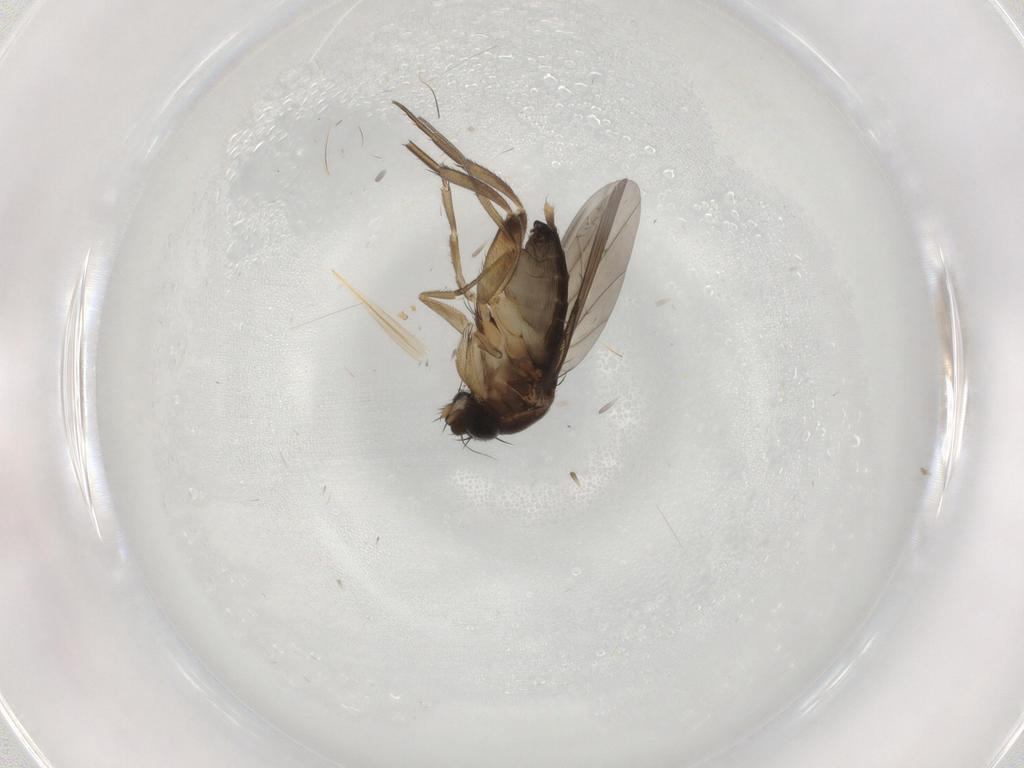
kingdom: Animalia
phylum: Arthropoda
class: Insecta
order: Diptera
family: Phoridae
